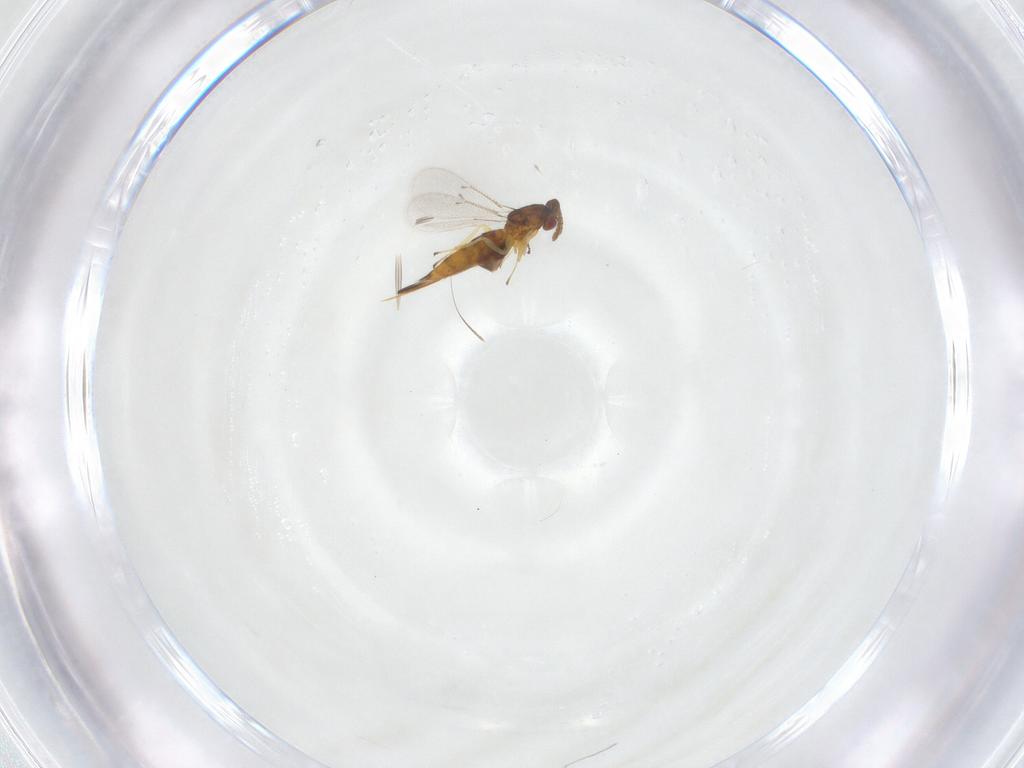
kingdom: Animalia
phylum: Arthropoda
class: Insecta
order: Hymenoptera
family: Eulophidae
